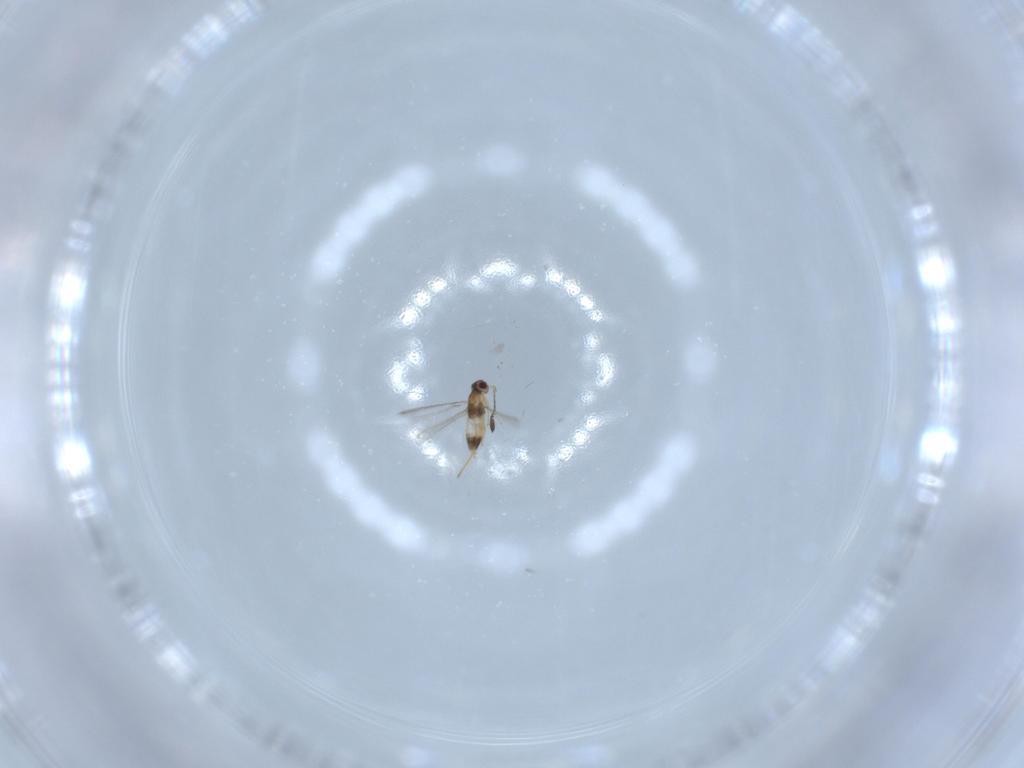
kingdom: Animalia
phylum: Arthropoda
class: Insecta
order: Hymenoptera
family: Mymaridae
